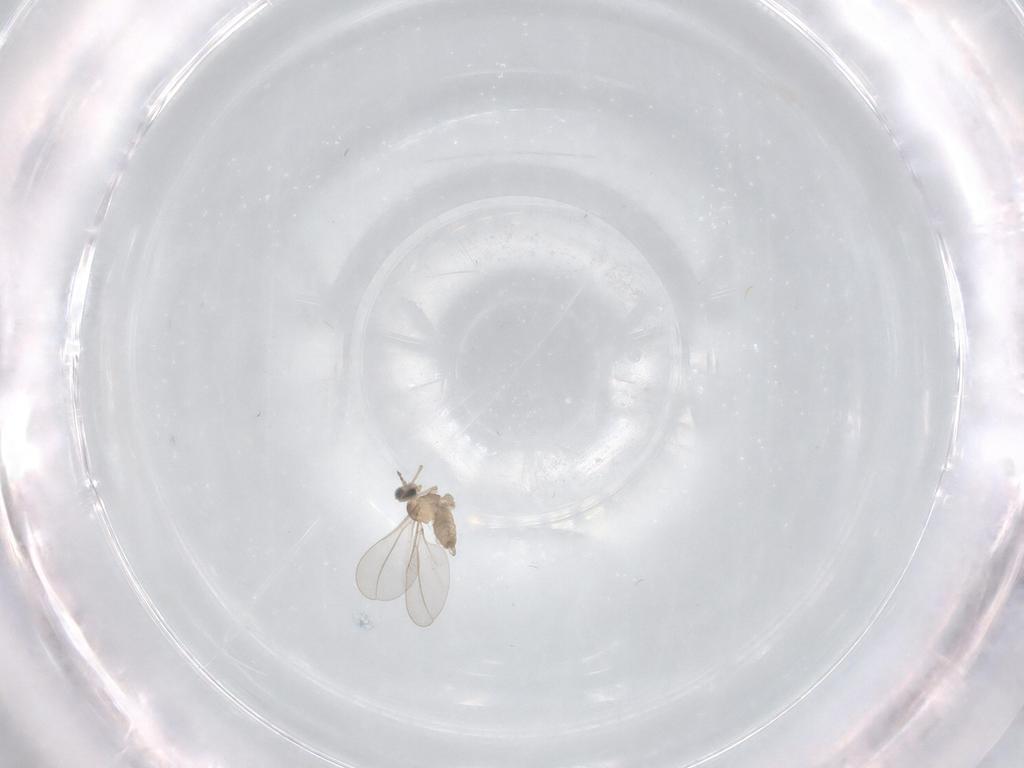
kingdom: Animalia
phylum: Arthropoda
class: Insecta
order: Diptera
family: Cecidomyiidae
